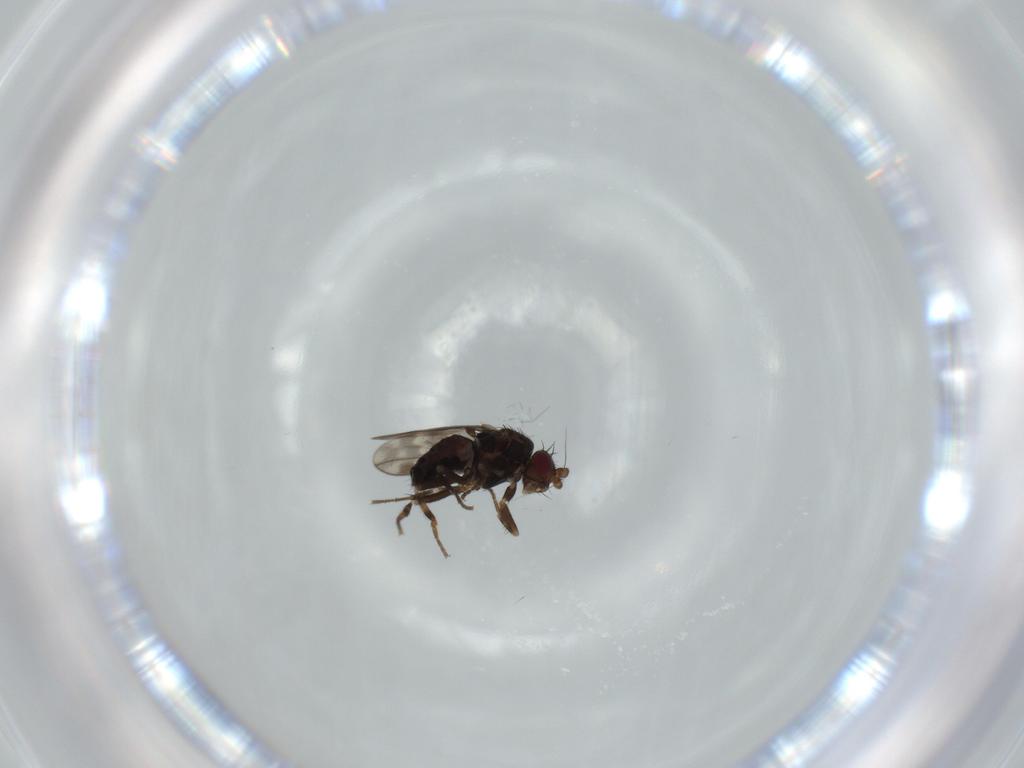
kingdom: Animalia
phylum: Arthropoda
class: Insecta
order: Diptera
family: Sphaeroceridae
